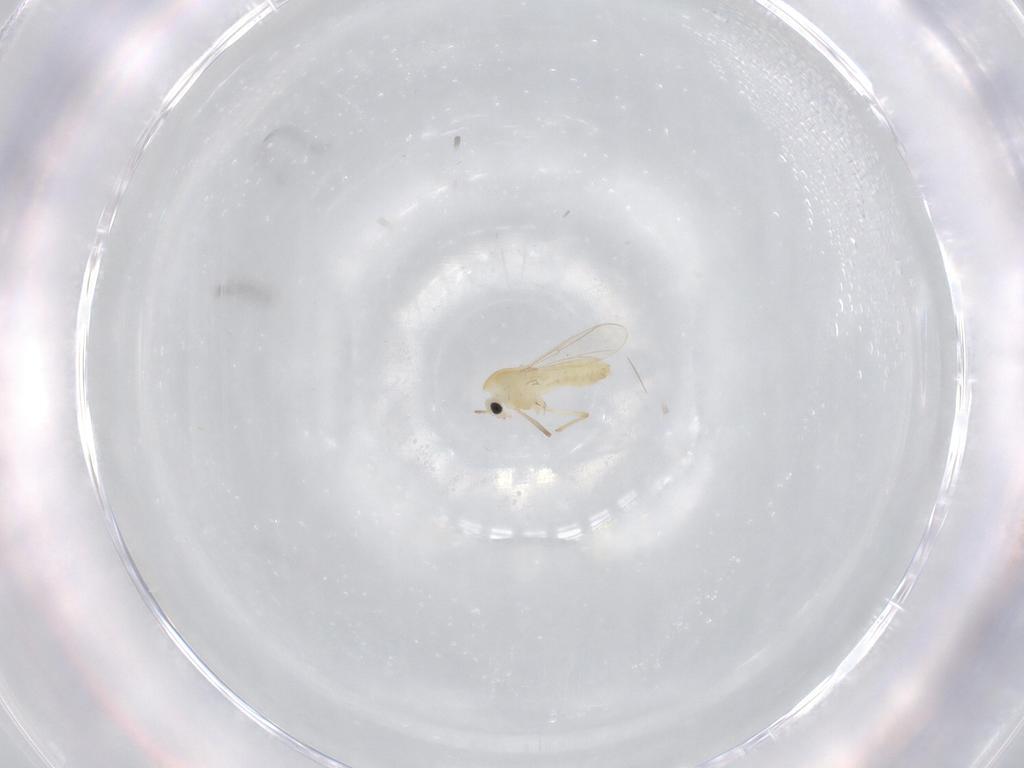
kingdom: Animalia
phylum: Arthropoda
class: Insecta
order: Diptera
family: Chironomidae
